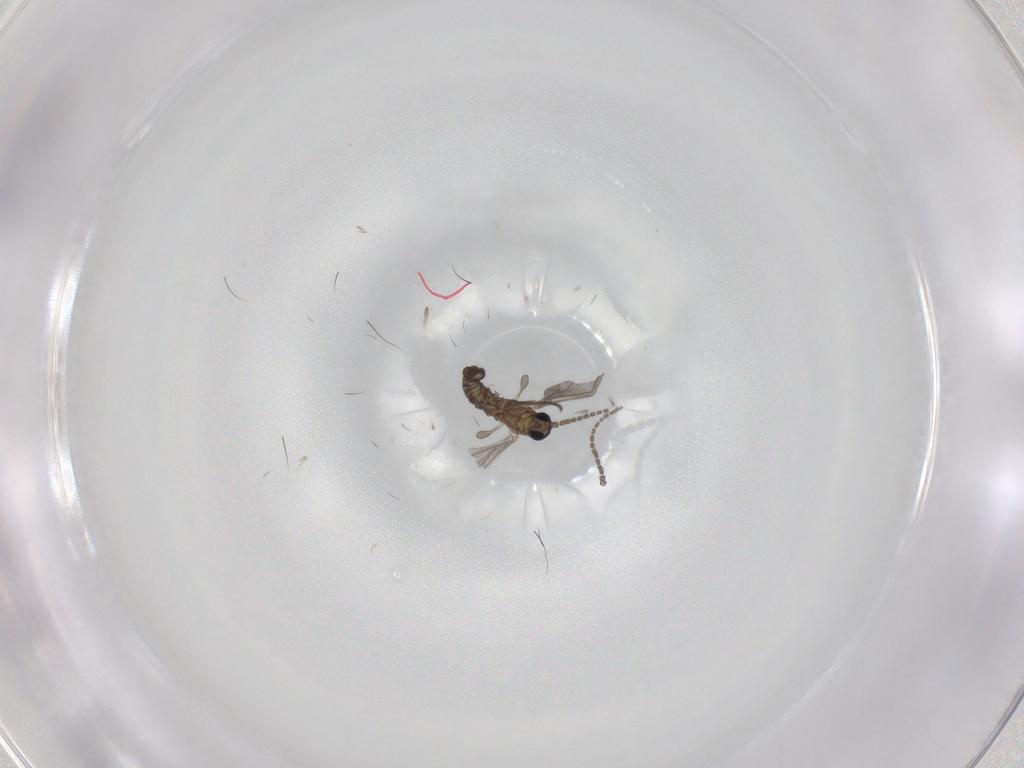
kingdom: Animalia
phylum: Arthropoda
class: Insecta
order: Diptera
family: Sciaridae
